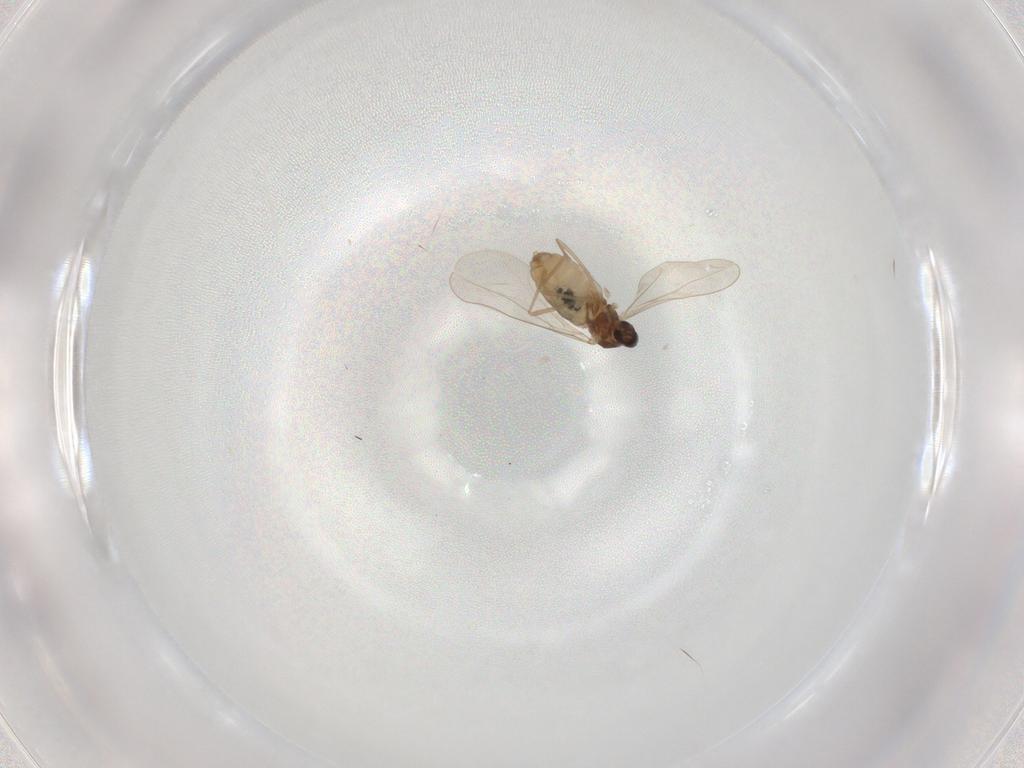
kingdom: Animalia
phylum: Arthropoda
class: Insecta
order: Diptera
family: Cecidomyiidae
